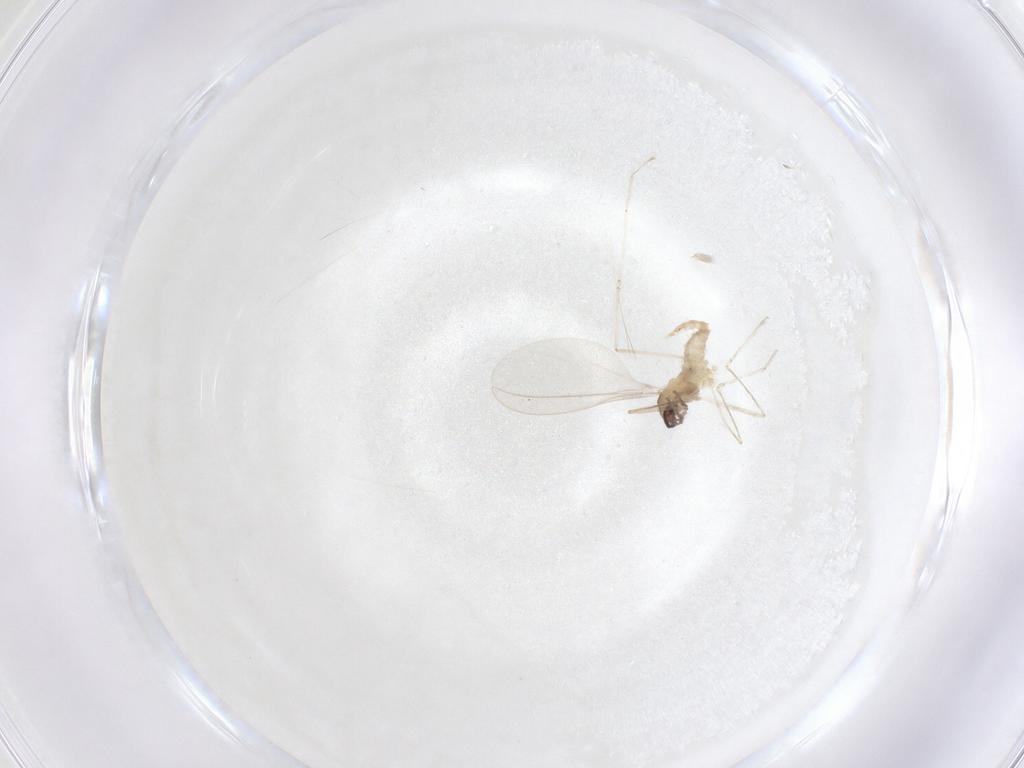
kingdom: Animalia
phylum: Arthropoda
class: Insecta
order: Diptera
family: Cecidomyiidae
